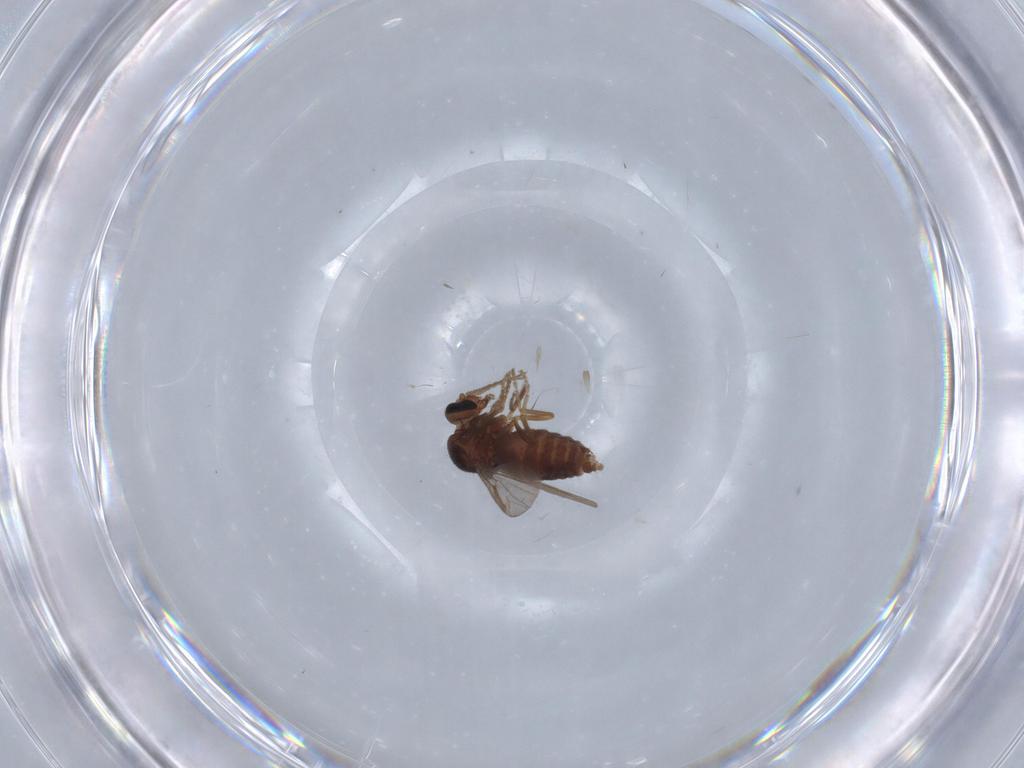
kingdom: Animalia
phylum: Arthropoda
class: Insecta
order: Diptera
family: Ceratopogonidae
